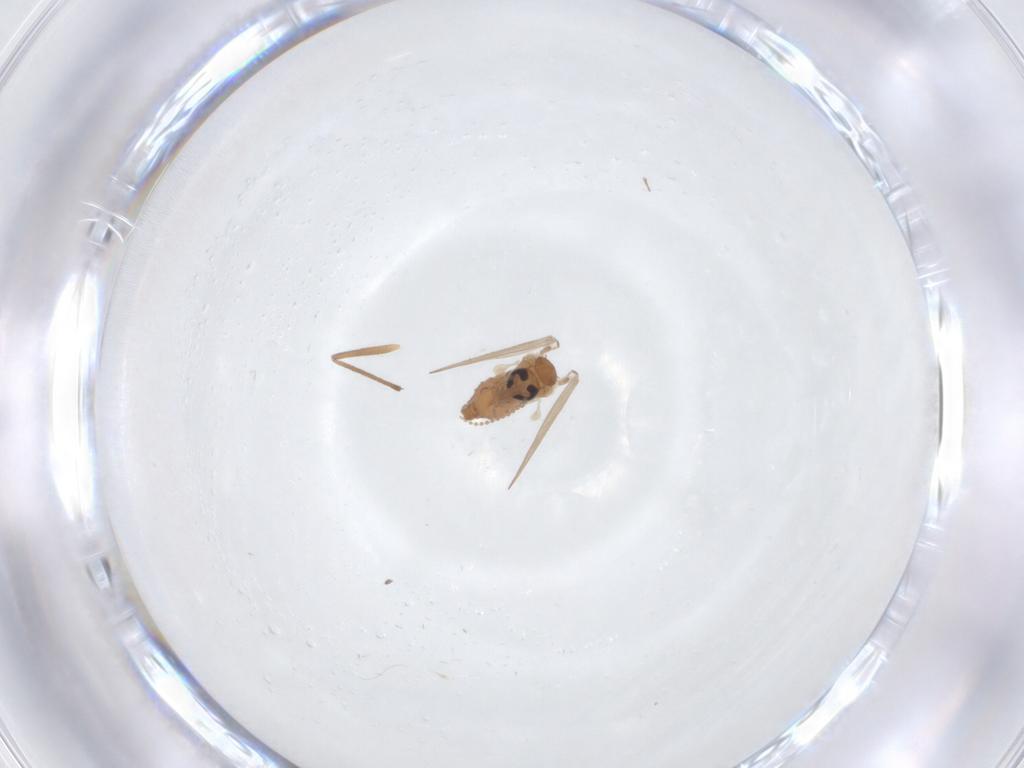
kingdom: Animalia
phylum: Arthropoda
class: Insecta
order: Diptera
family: Psychodidae
